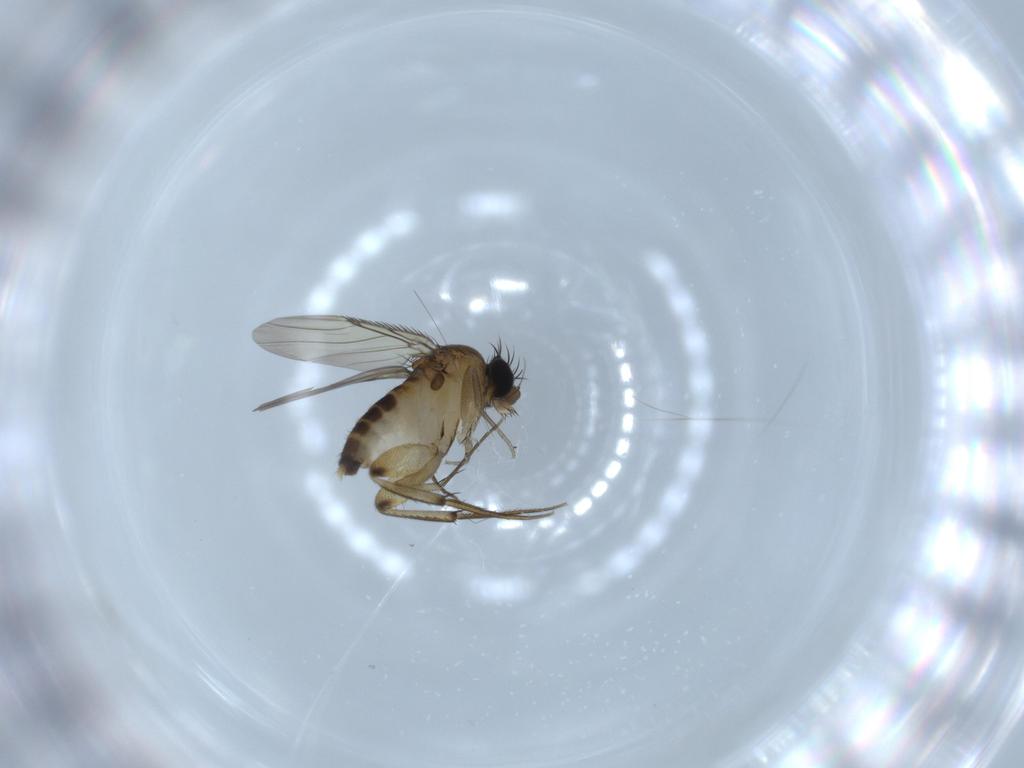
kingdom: Animalia
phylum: Arthropoda
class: Insecta
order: Diptera
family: Phoridae
